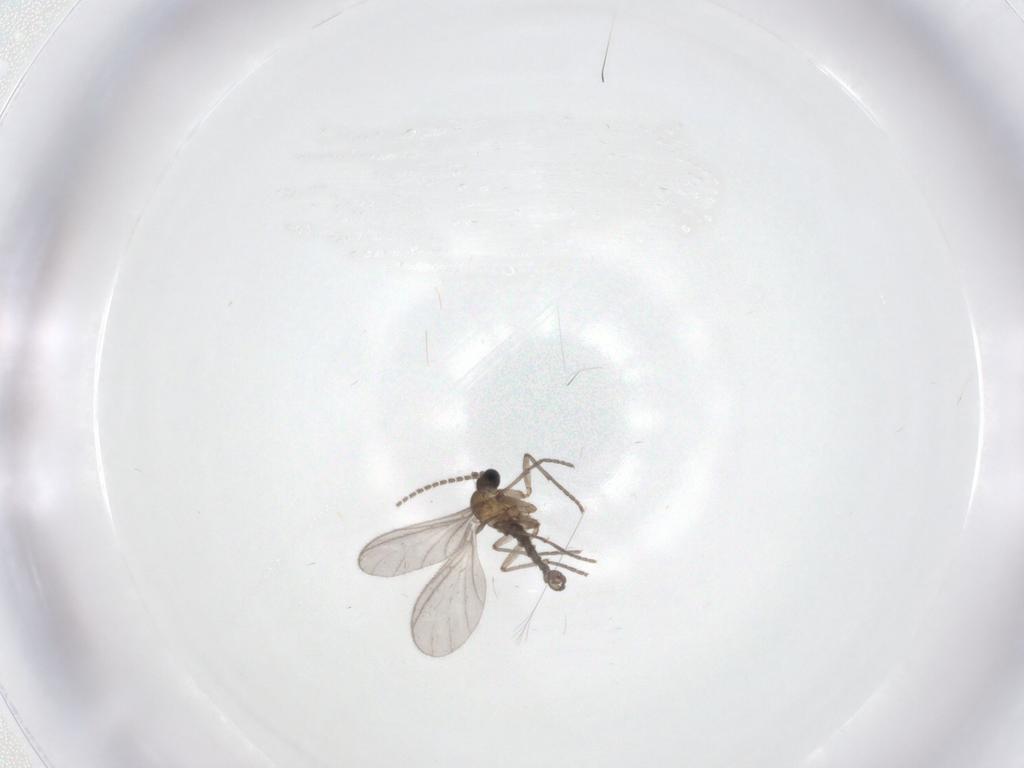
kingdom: Animalia
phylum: Arthropoda
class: Insecta
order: Diptera
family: Sciaridae
